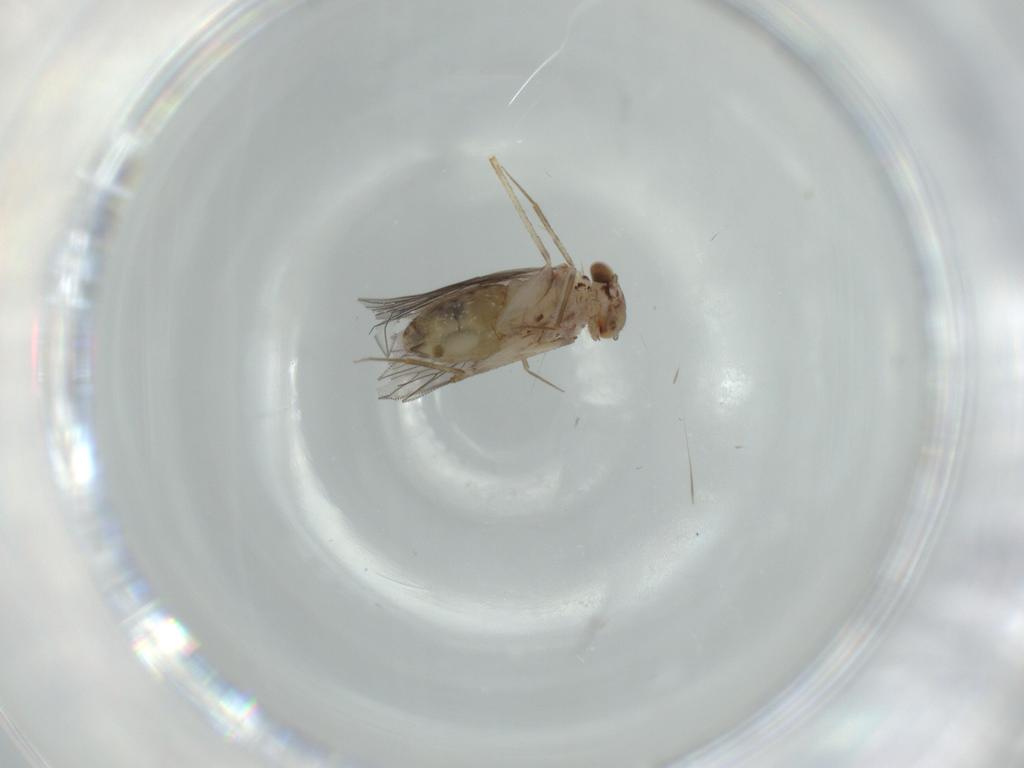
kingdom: Animalia
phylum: Arthropoda
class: Insecta
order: Psocodea
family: Lepidopsocidae
